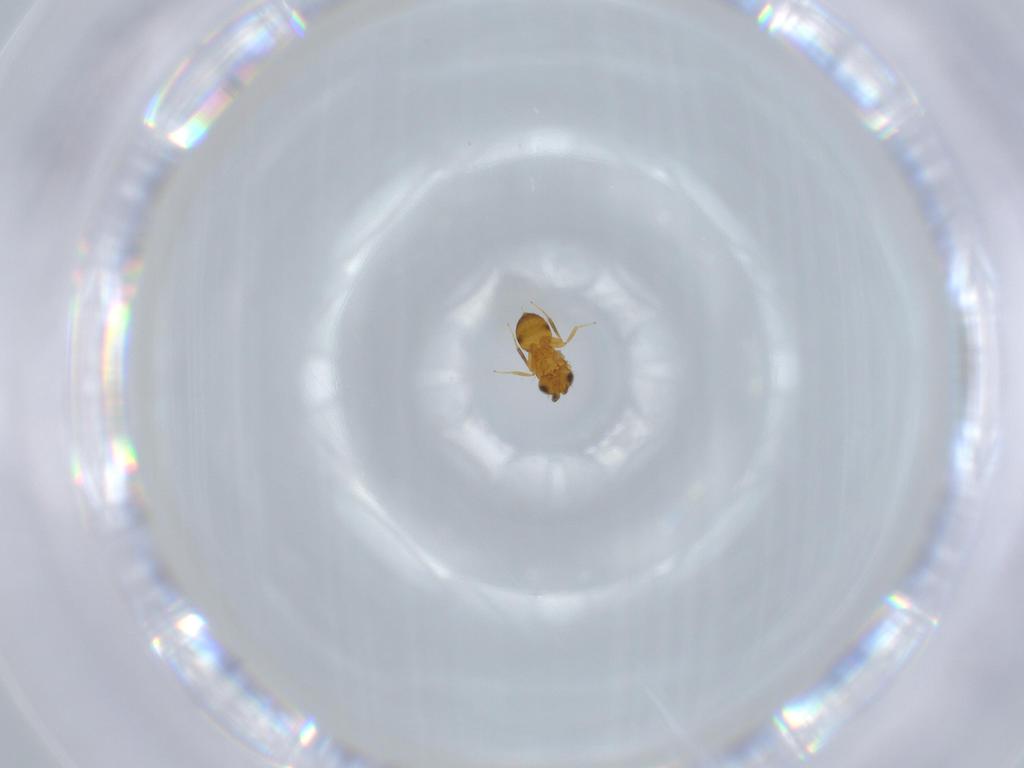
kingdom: Animalia
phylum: Arthropoda
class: Insecta
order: Hymenoptera
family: Scelionidae
